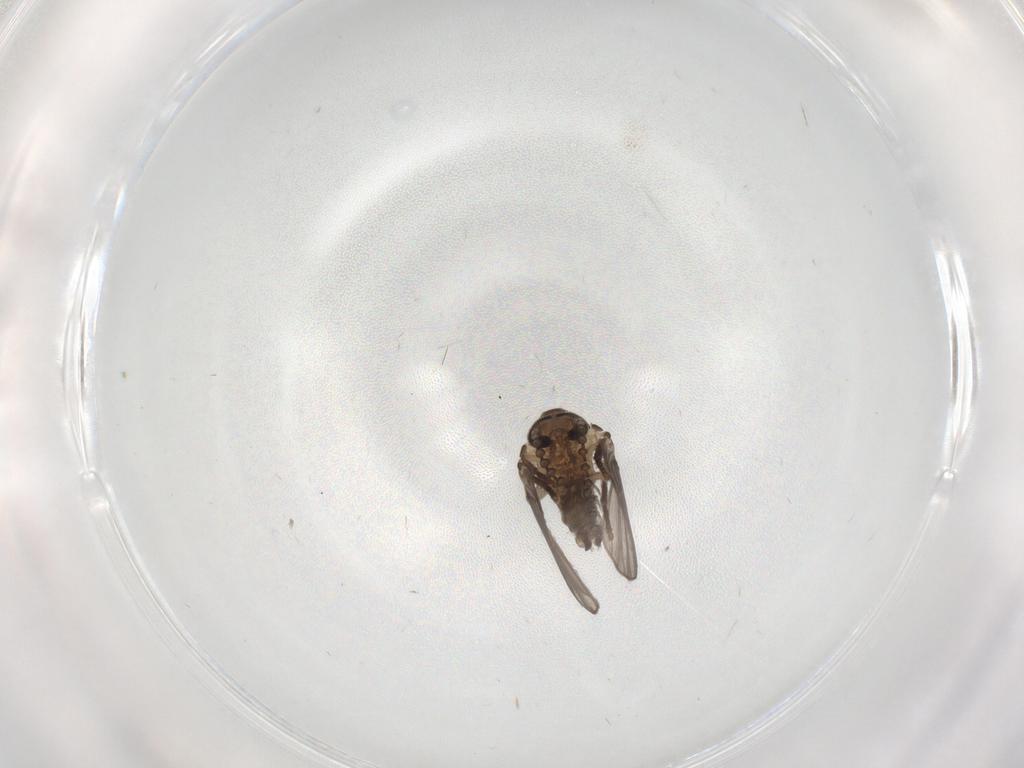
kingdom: Animalia
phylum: Arthropoda
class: Insecta
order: Diptera
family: Psychodidae
